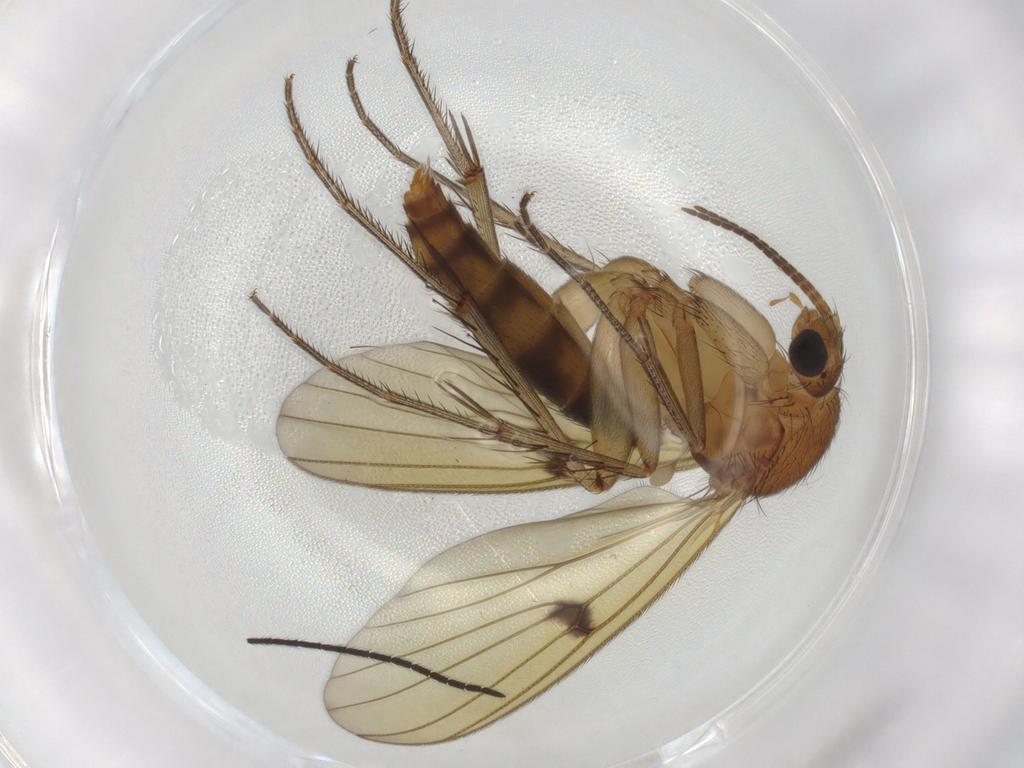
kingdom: Animalia
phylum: Arthropoda
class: Insecta
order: Diptera
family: Mycetophilidae
